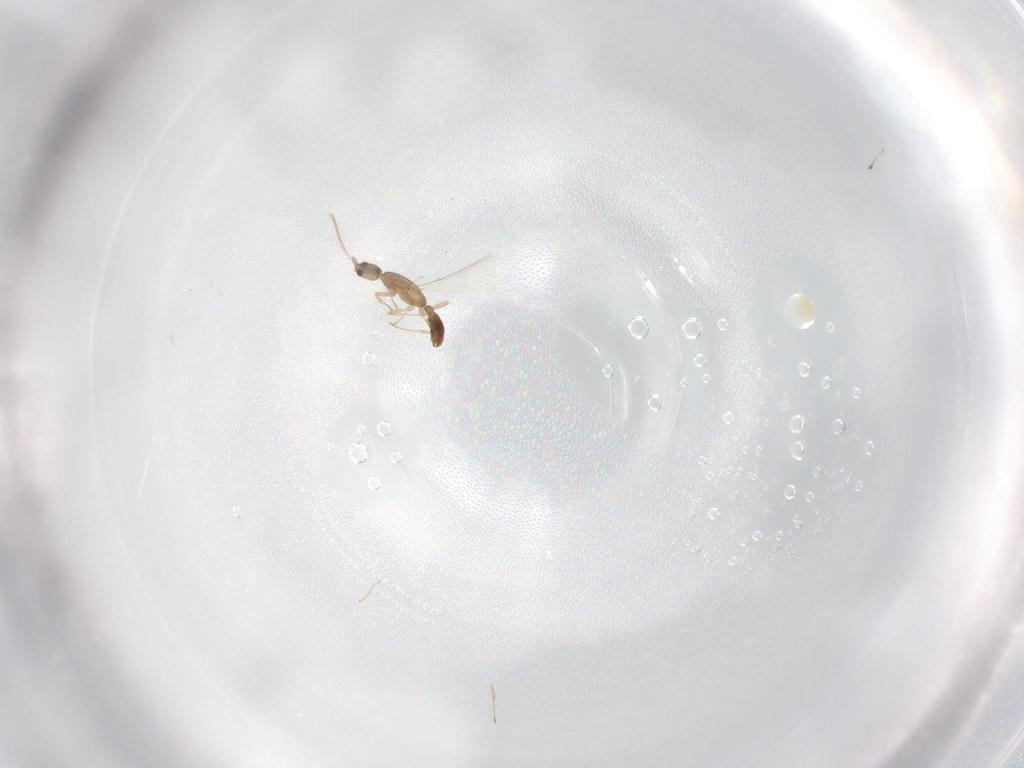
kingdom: Animalia
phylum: Arthropoda
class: Insecta
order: Hymenoptera
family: Formicidae
